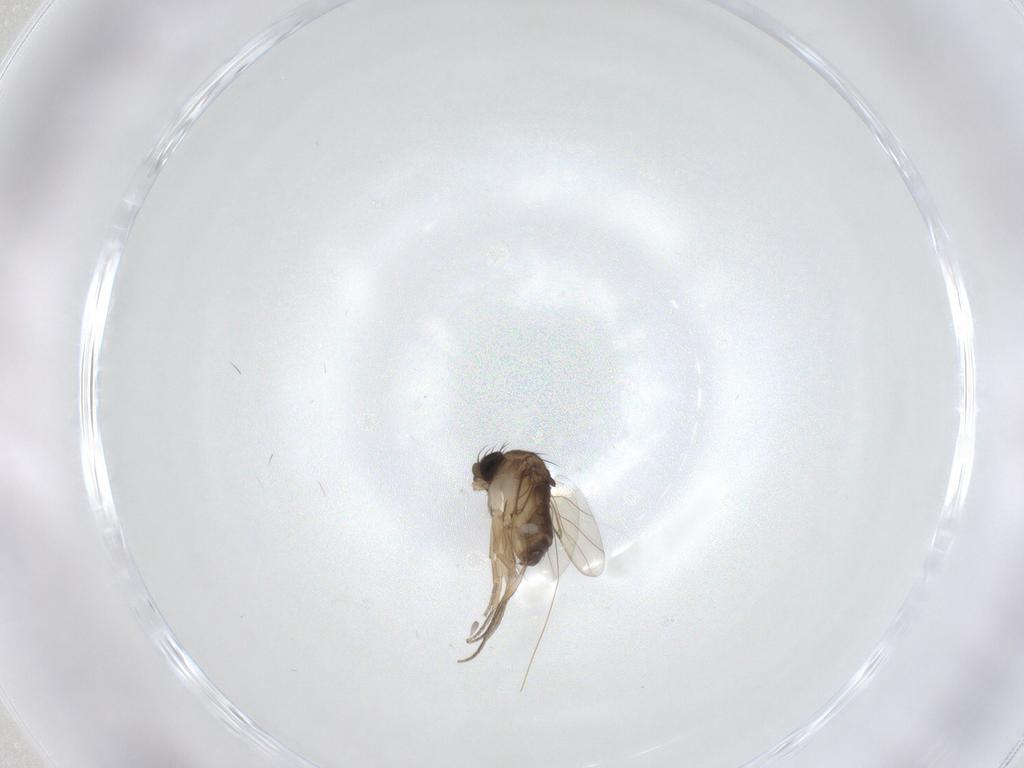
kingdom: Animalia
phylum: Arthropoda
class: Insecta
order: Diptera
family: Phoridae
